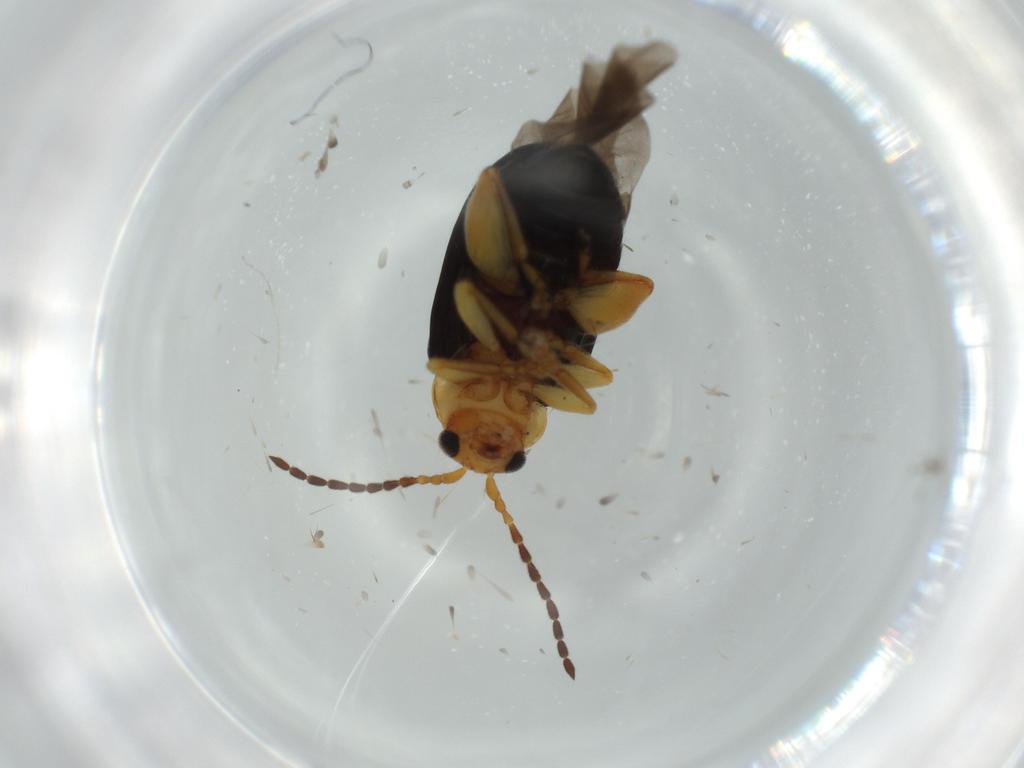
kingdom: Animalia
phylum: Arthropoda
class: Insecta
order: Coleoptera
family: Chrysomelidae
